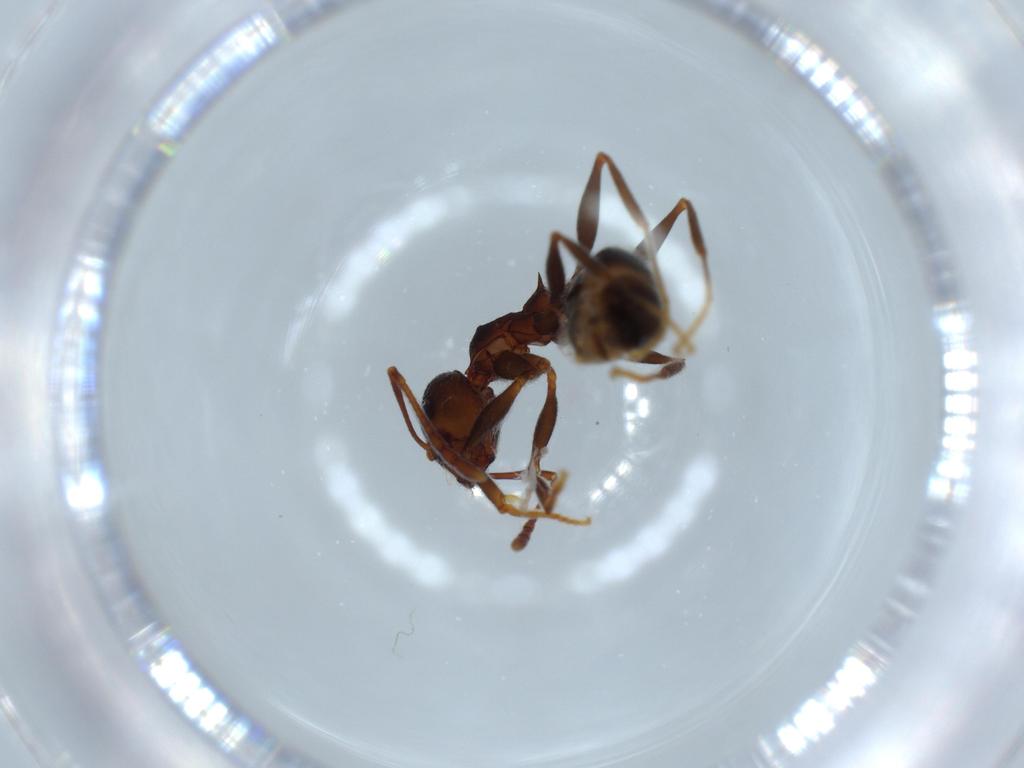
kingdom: Animalia
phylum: Arthropoda
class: Insecta
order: Hymenoptera
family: Formicidae
